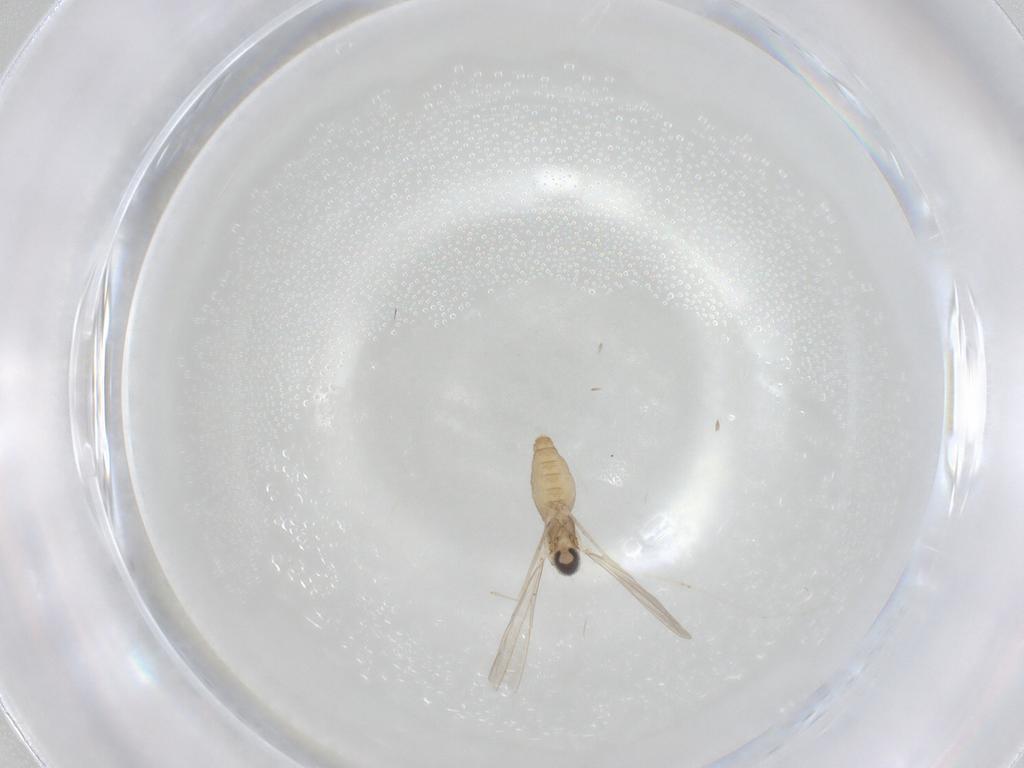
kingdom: Animalia
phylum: Arthropoda
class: Insecta
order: Diptera
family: Cecidomyiidae
